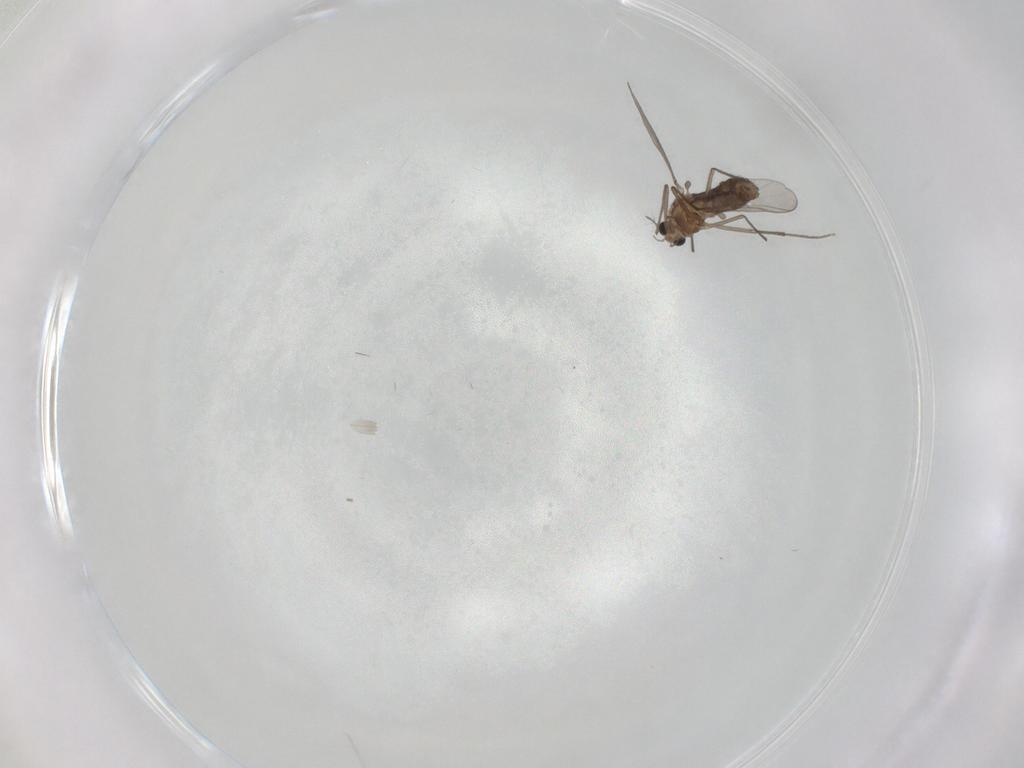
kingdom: Animalia
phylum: Arthropoda
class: Insecta
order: Diptera
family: Chironomidae
